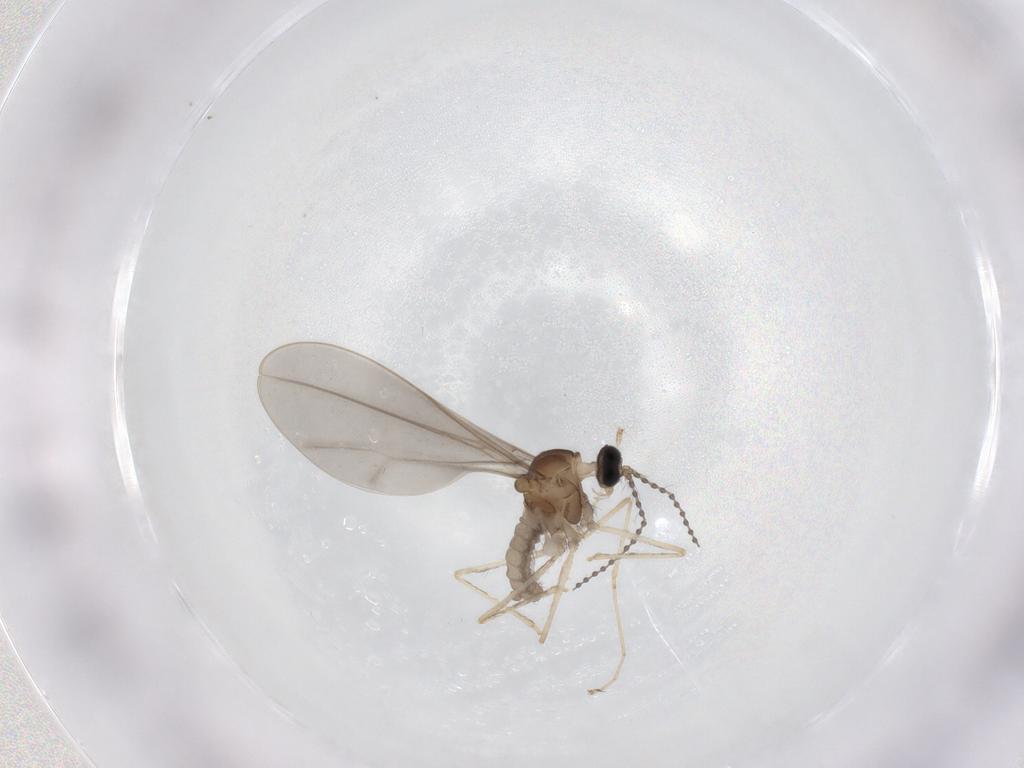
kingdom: Animalia
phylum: Arthropoda
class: Insecta
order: Diptera
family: Cecidomyiidae
